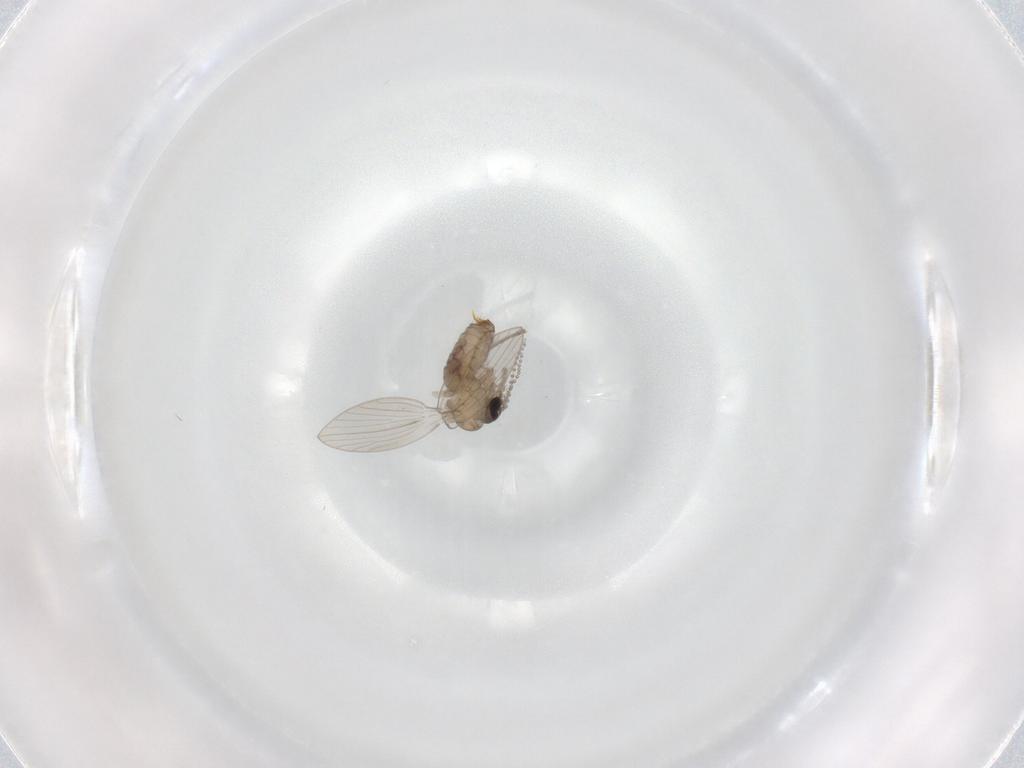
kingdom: Animalia
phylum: Arthropoda
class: Insecta
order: Diptera
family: Psychodidae
